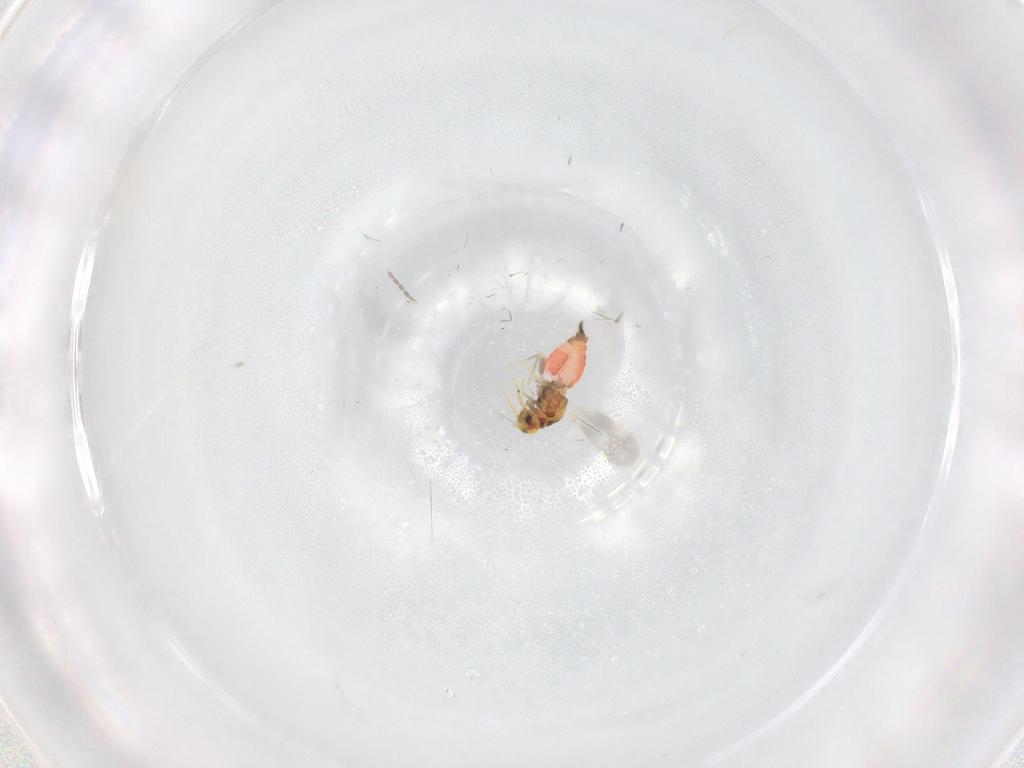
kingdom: Animalia
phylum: Arthropoda
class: Insecta
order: Hemiptera
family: Aleyrodidae
